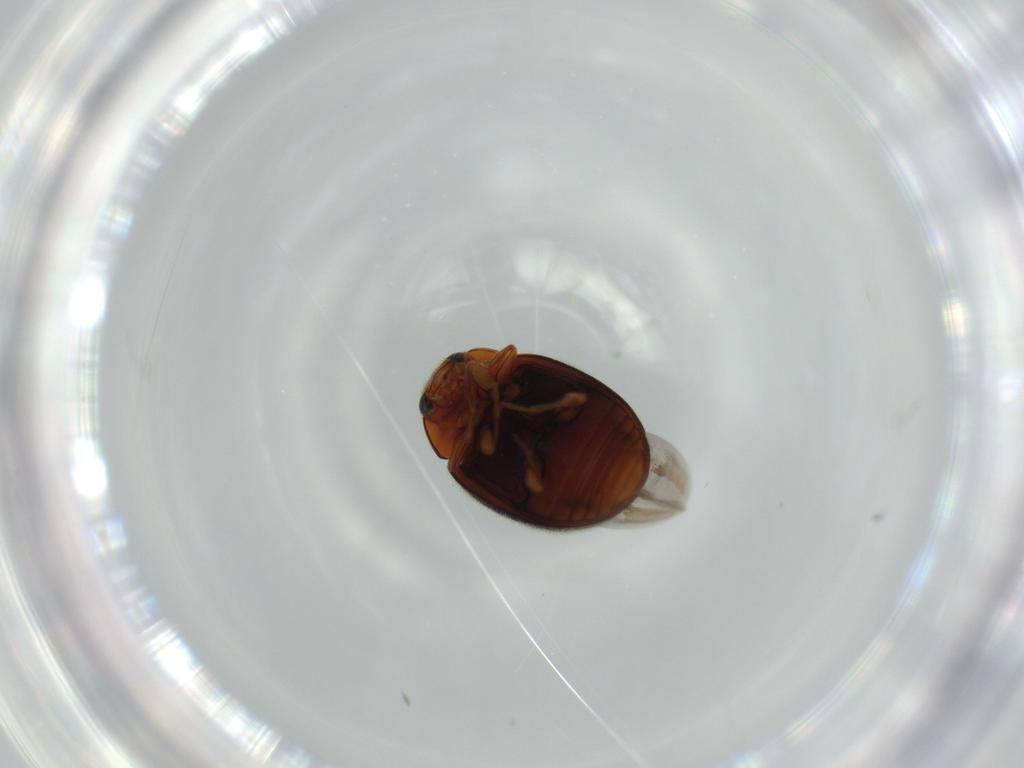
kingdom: Animalia
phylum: Arthropoda
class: Insecta
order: Coleoptera
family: Coccinellidae
